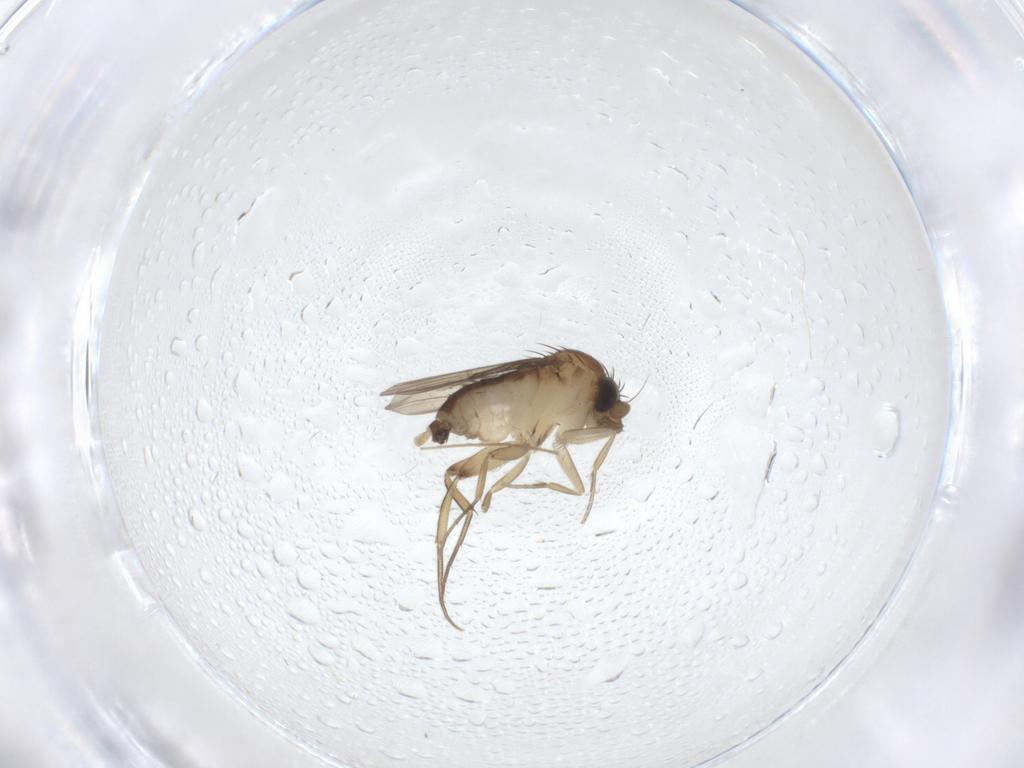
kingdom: Animalia
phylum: Arthropoda
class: Insecta
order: Diptera
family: Phoridae
